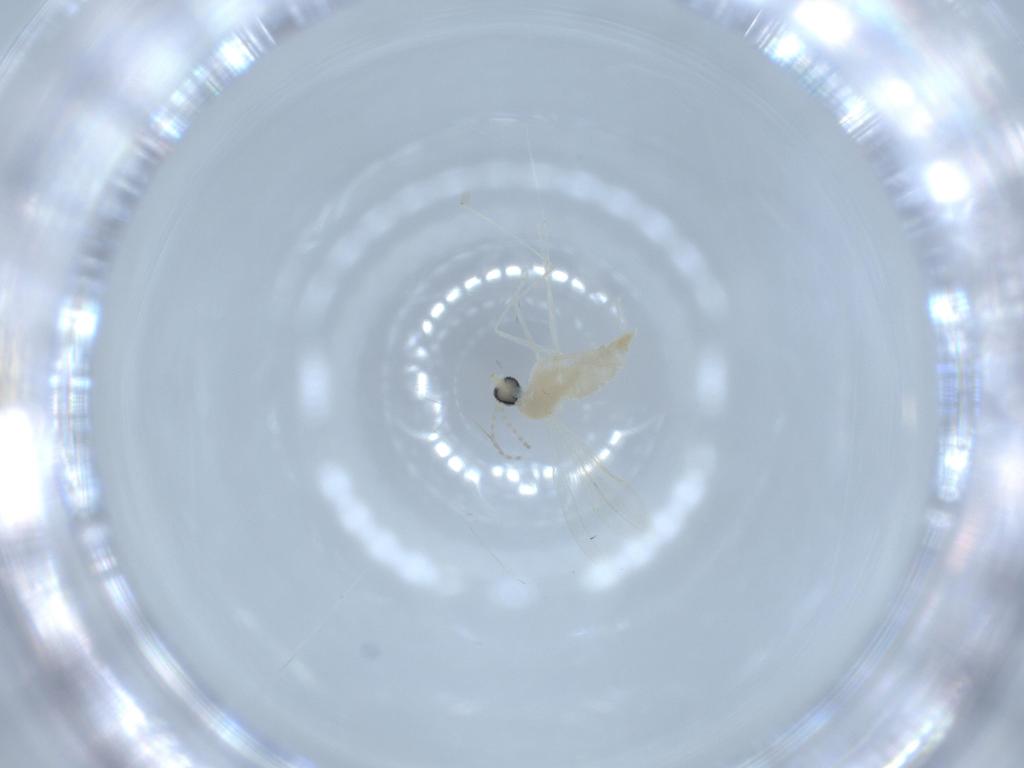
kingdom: Animalia
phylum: Arthropoda
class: Insecta
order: Diptera
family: Cecidomyiidae
